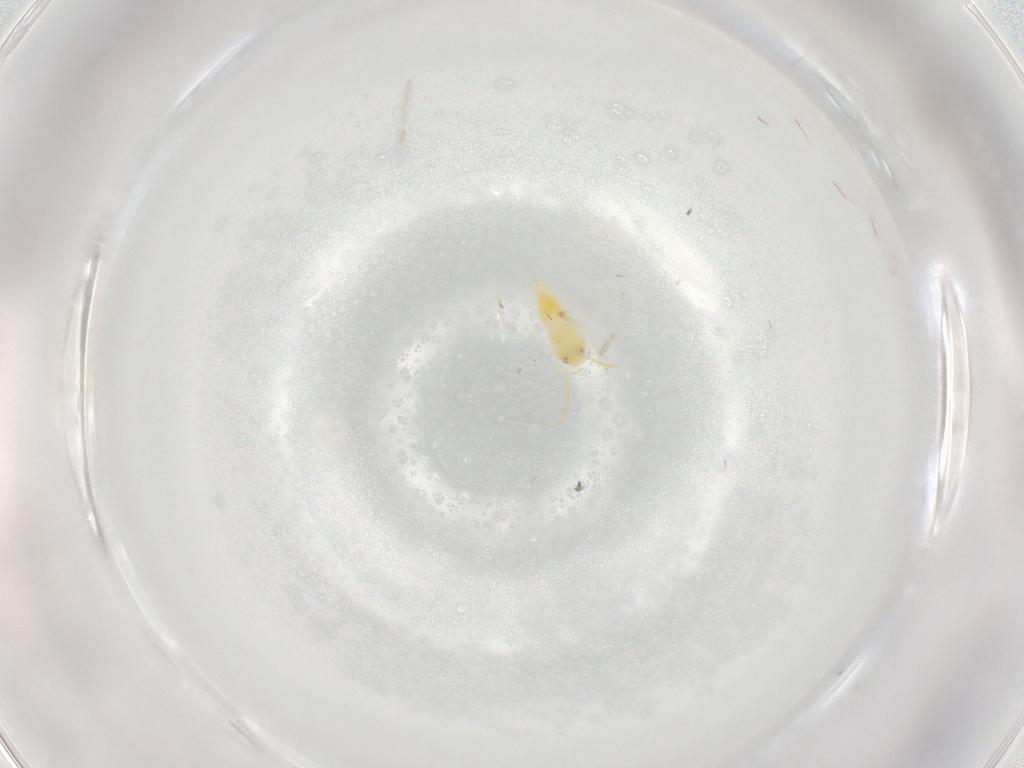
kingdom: Animalia
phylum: Arthropoda
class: Insecta
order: Hemiptera
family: Aleyrodidae
